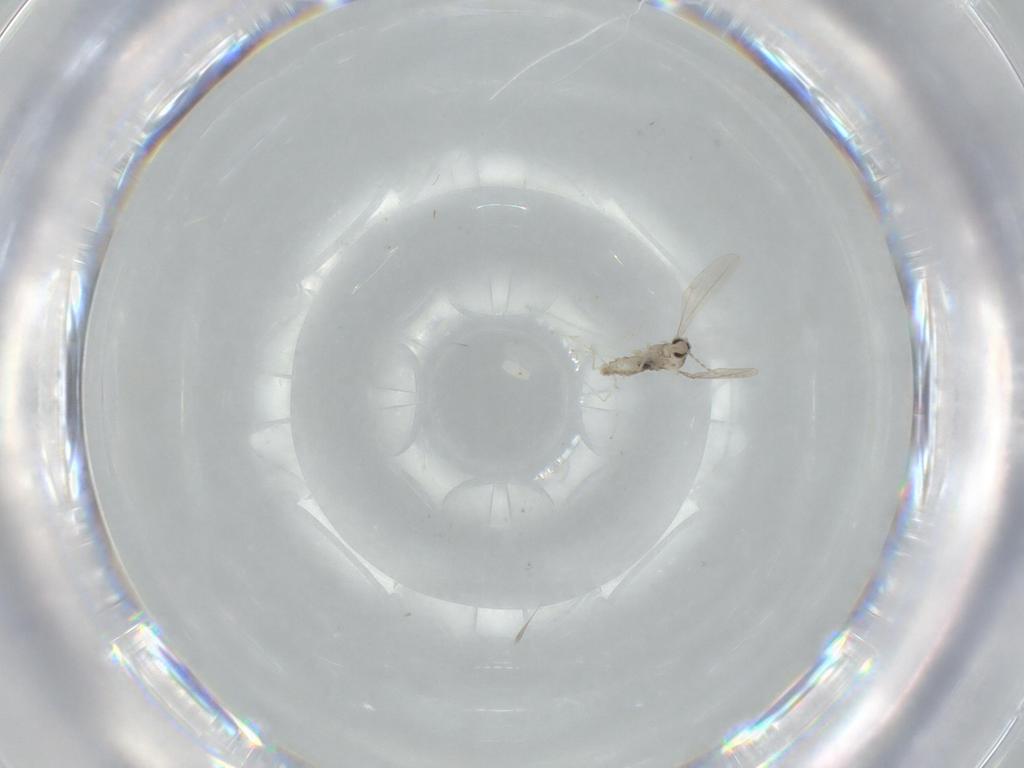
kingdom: Animalia
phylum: Arthropoda
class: Insecta
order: Diptera
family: Cecidomyiidae
